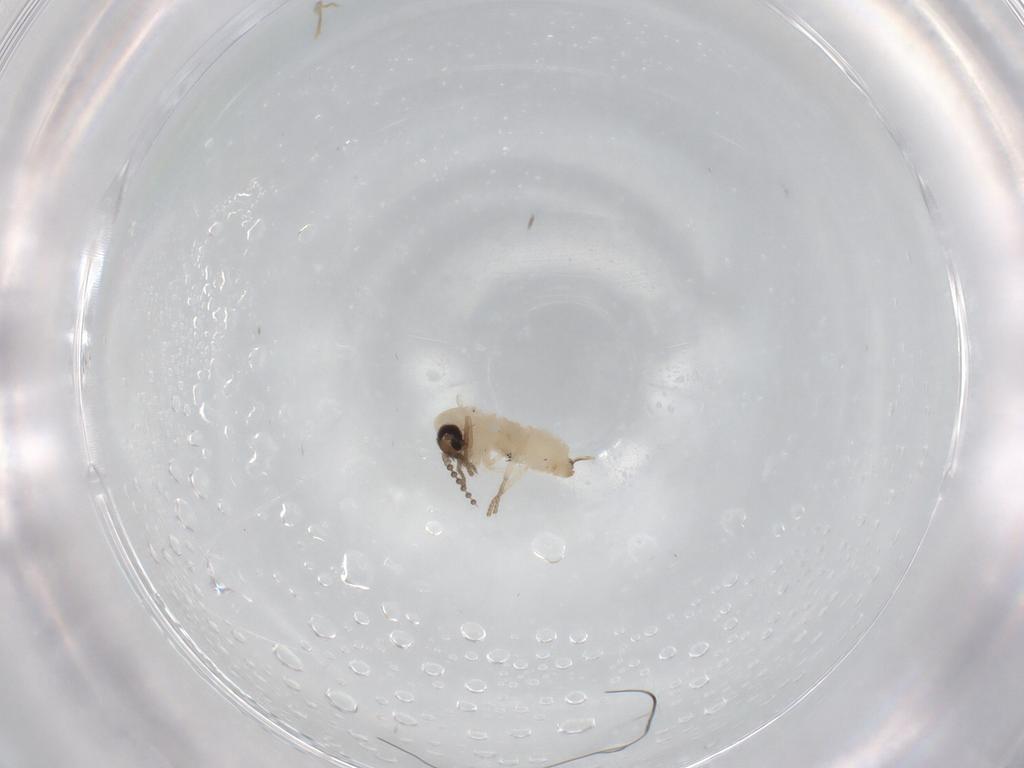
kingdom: Animalia
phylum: Arthropoda
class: Insecta
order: Diptera
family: Psychodidae
